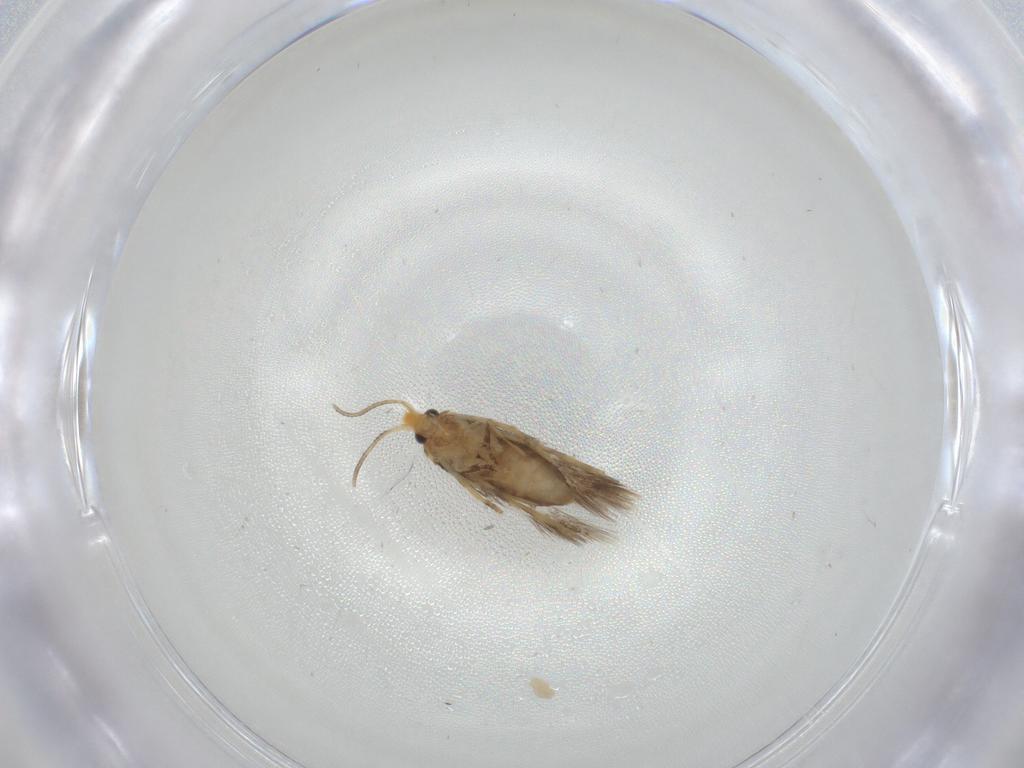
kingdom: Animalia
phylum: Arthropoda
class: Insecta
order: Lepidoptera
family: Nepticulidae
